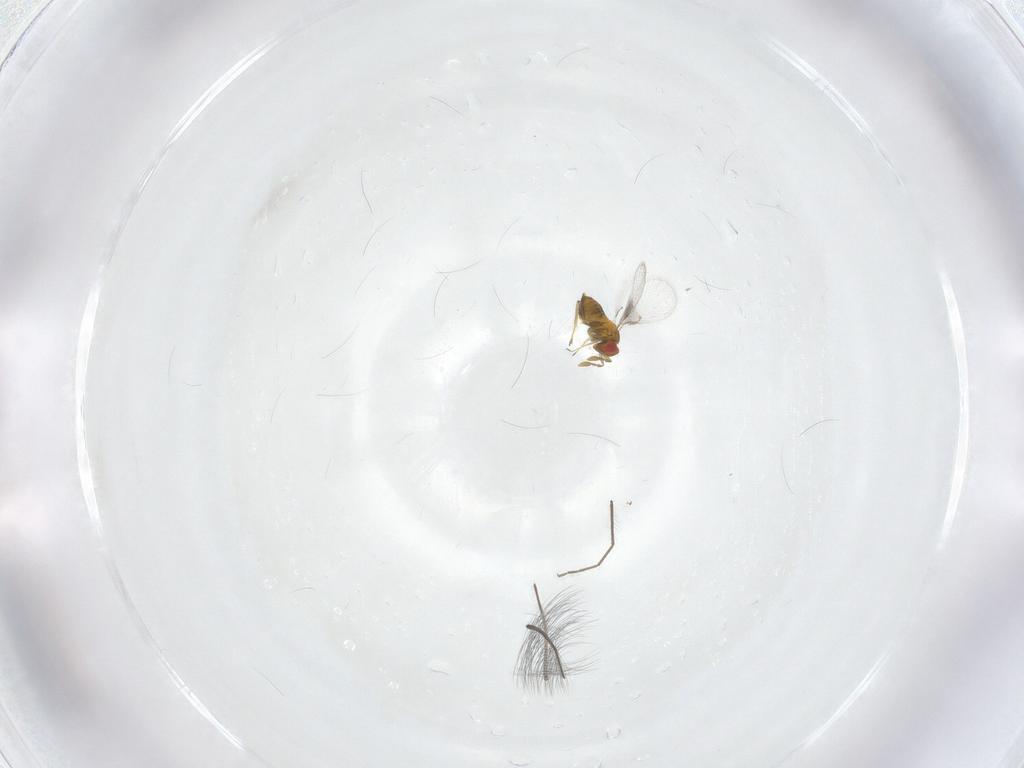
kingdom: Animalia
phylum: Arthropoda
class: Insecta
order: Hymenoptera
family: Trichogrammatidae
